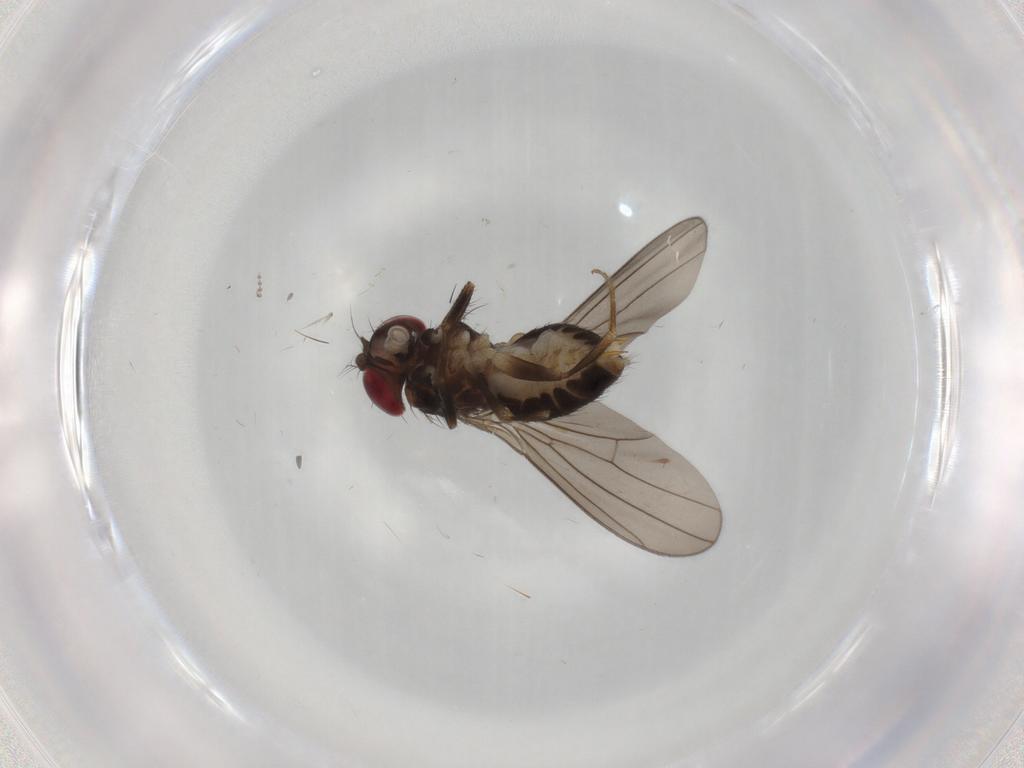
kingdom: Animalia
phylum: Arthropoda
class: Insecta
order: Diptera
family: Drosophilidae
